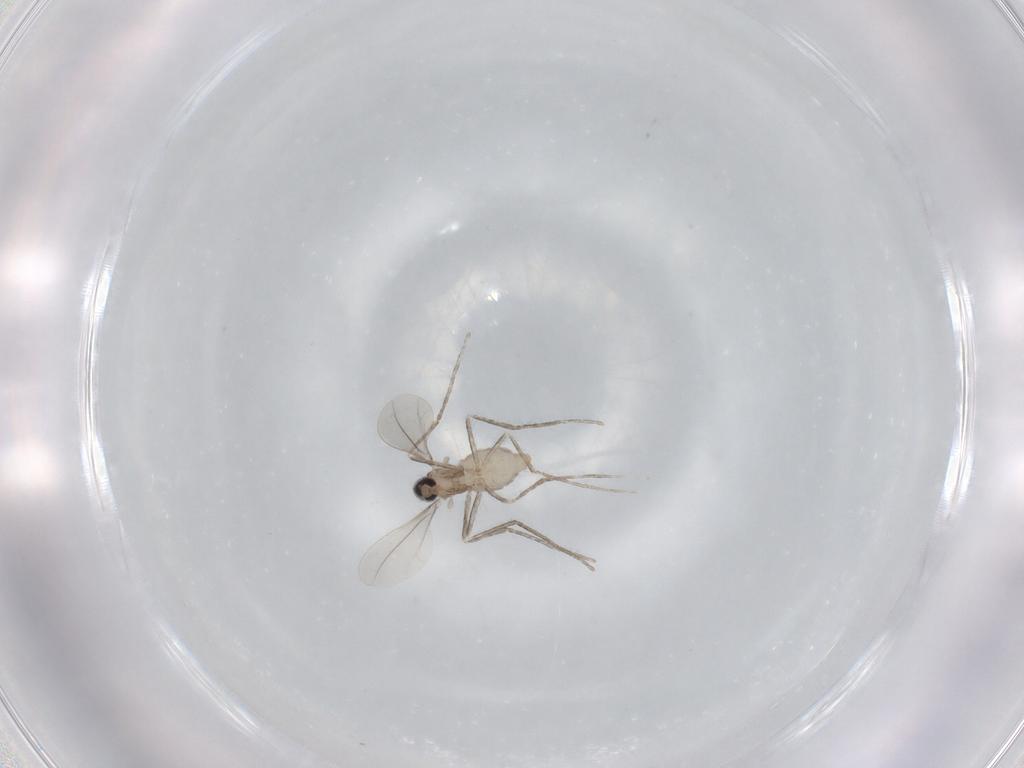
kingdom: Animalia
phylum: Arthropoda
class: Insecta
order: Diptera
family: Cecidomyiidae
